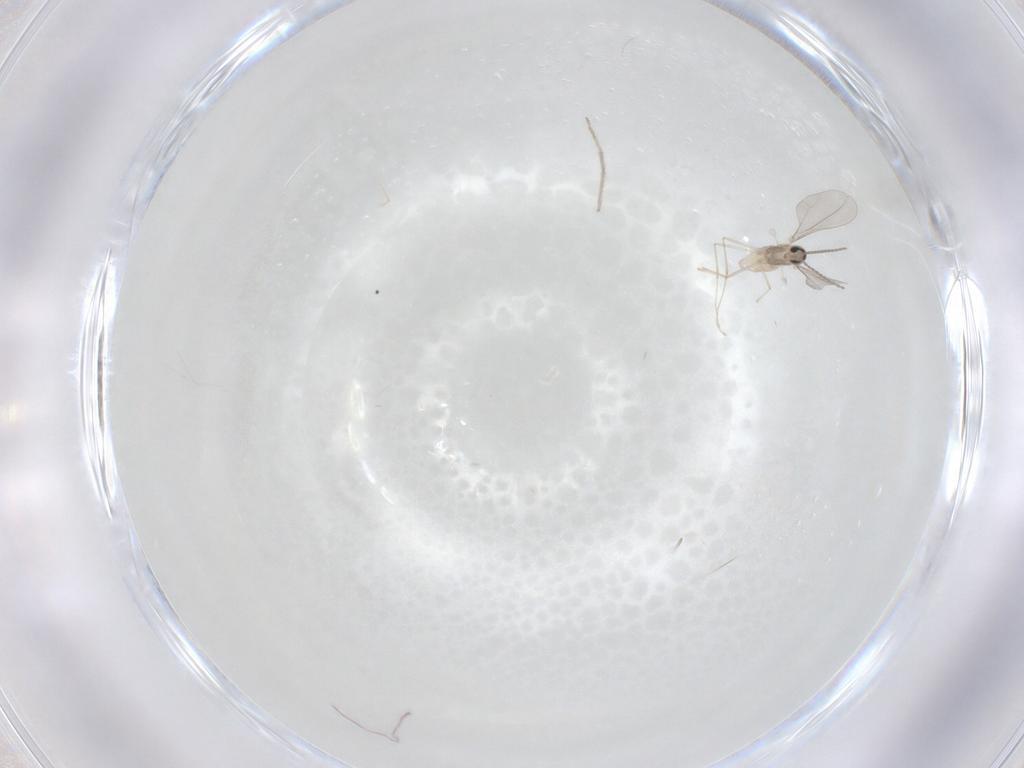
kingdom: Animalia
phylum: Arthropoda
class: Insecta
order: Diptera
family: Cecidomyiidae
